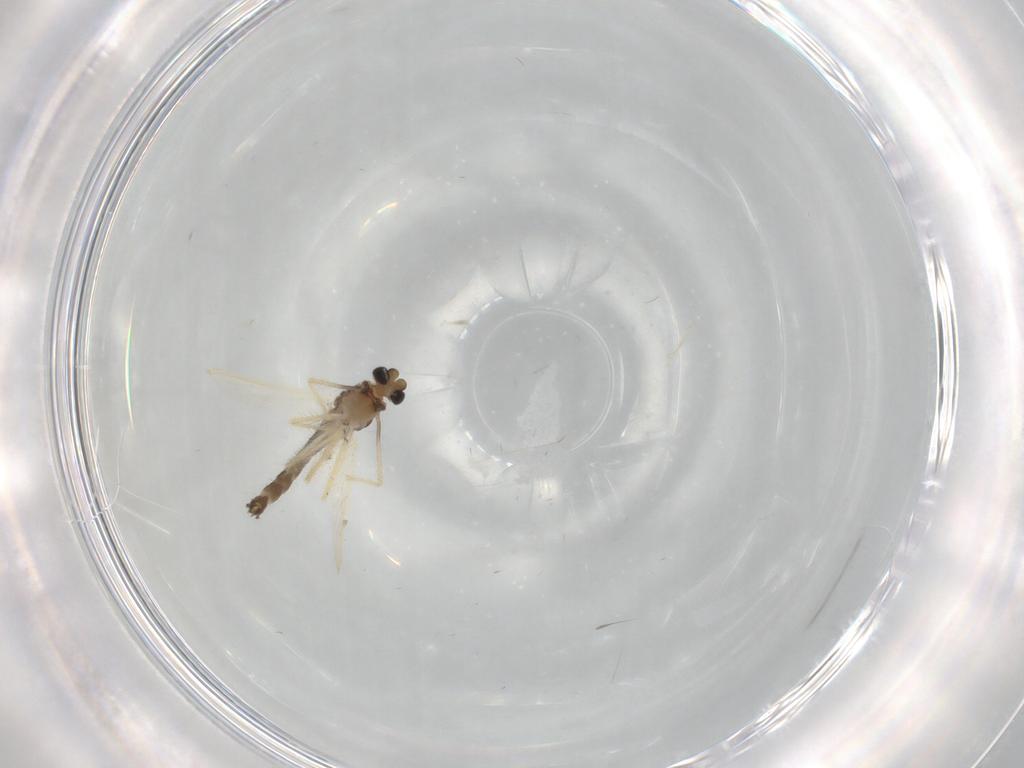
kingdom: Animalia
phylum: Arthropoda
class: Insecta
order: Diptera
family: Chironomidae
